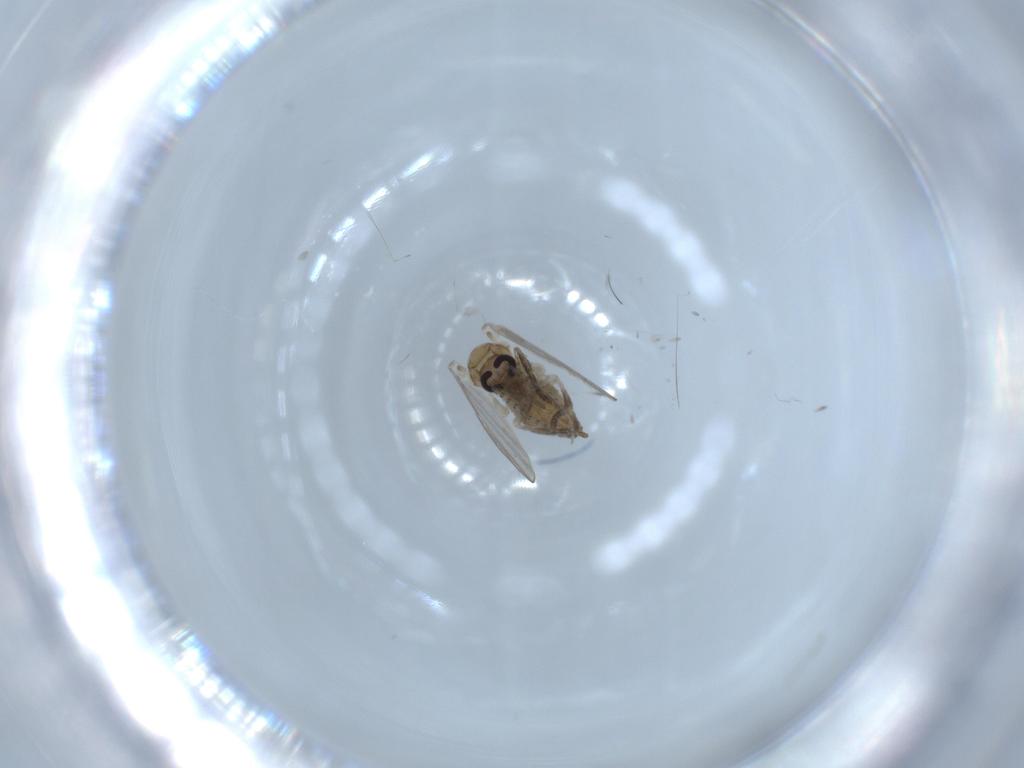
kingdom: Animalia
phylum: Arthropoda
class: Insecta
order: Diptera
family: Psychodidae
